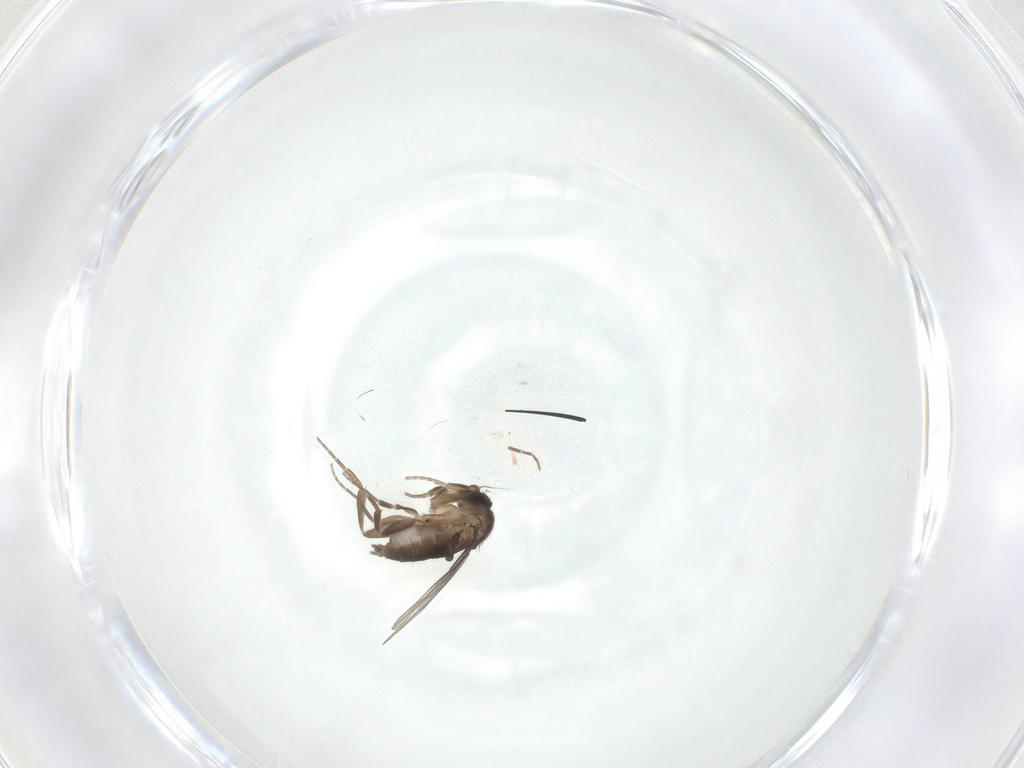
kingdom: Animalia
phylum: Arthropoda
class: Insecta
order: Diptera
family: Phoridae
